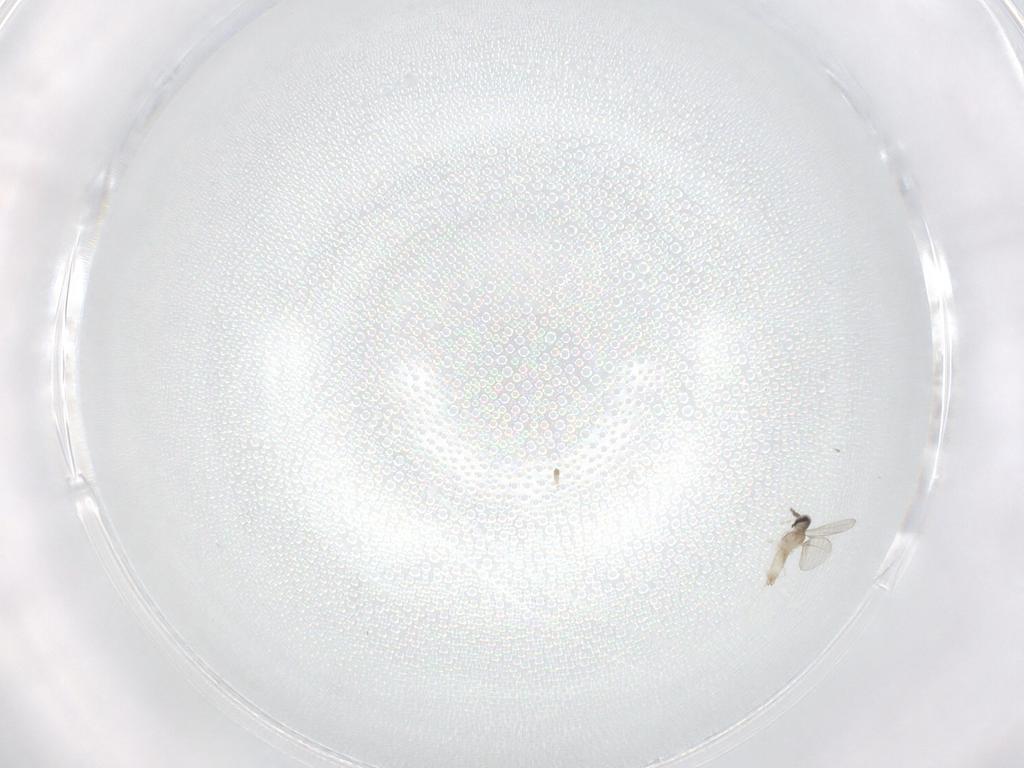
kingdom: Animalia
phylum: Arthropoda
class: Insecta
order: Diptera
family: Cecidomyiidae
